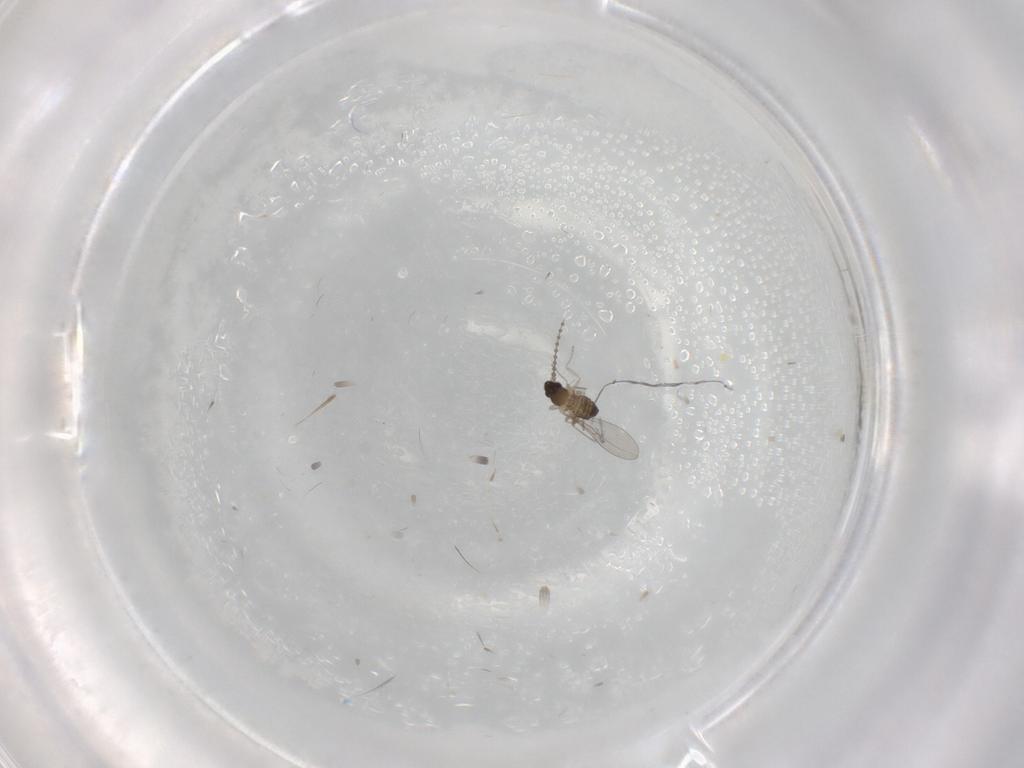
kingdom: Animalia
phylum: Arthropoda
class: Insecta
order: Diptera
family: Cecidomyiidae
